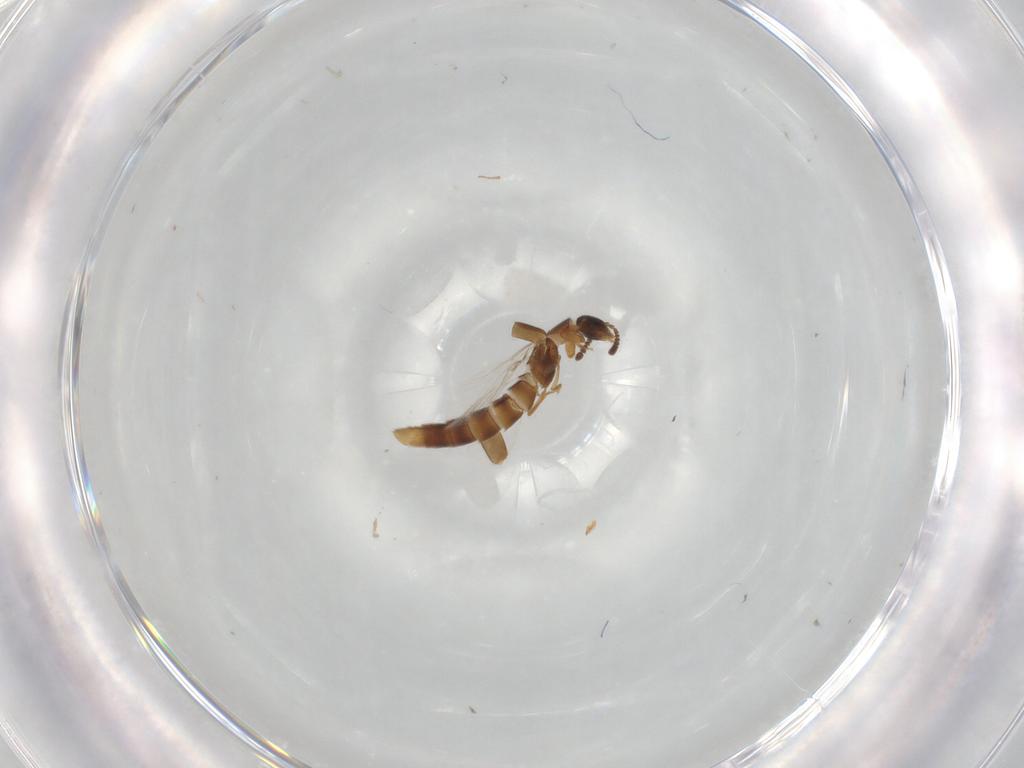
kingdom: Animalia
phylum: Arthropoda
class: Insecta
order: Coleoptera
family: Staphylinidae
